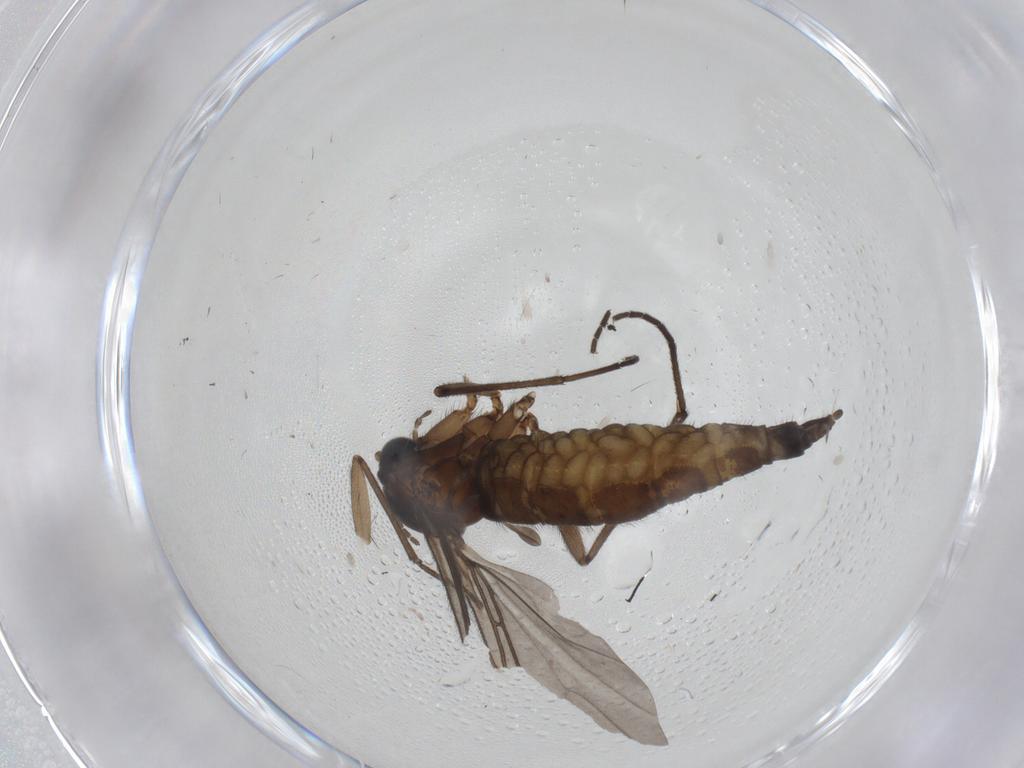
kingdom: Animalia
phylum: Arthropoda
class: Insecta
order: Diptera
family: Sciaridae
